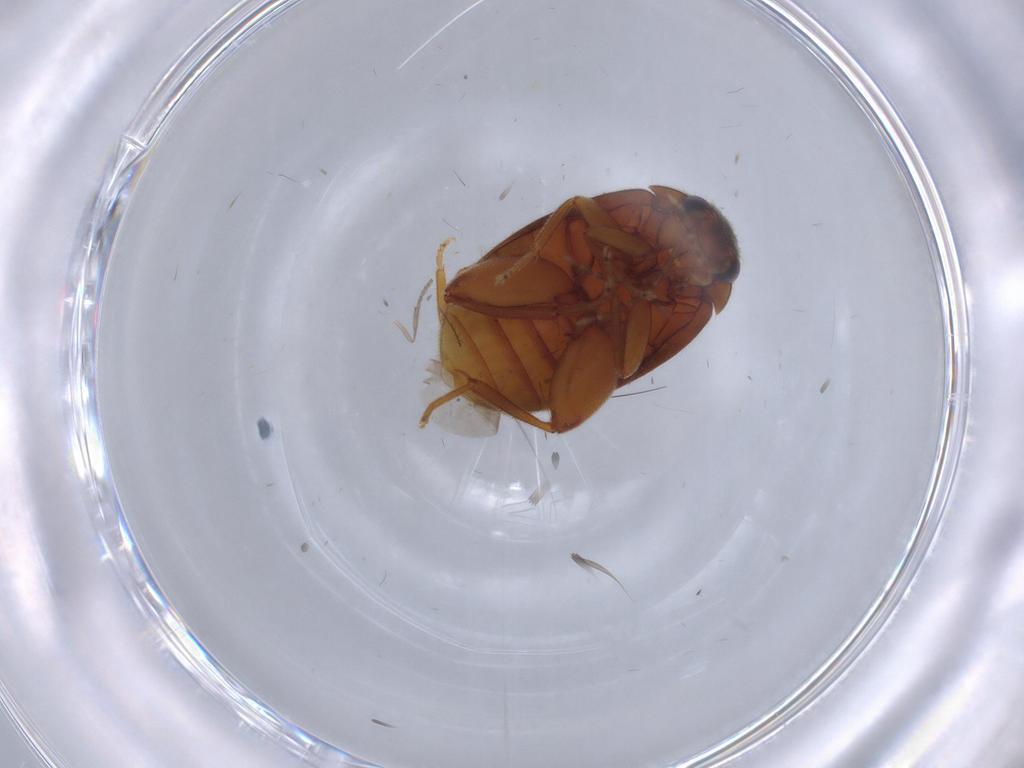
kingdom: Animalia
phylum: Arthropoda
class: Insecta
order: Coleoptera
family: Scirtidae
